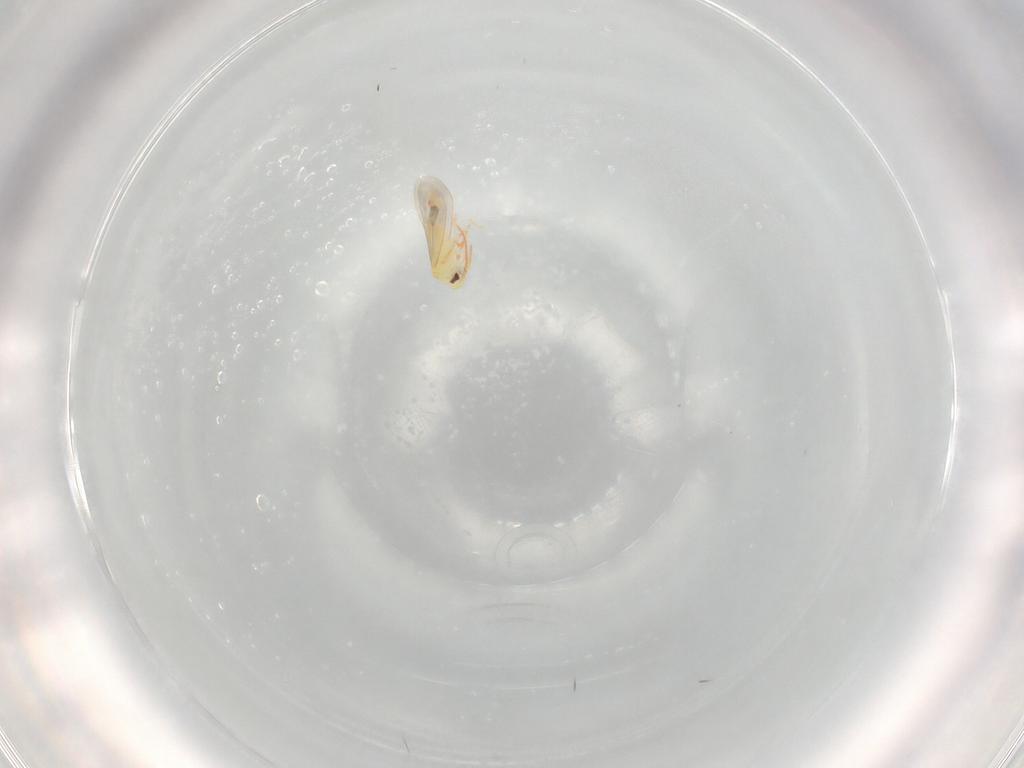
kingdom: Animalia
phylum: Arthropoda
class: Insecta
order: Hemiptera
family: Aleyrodidae
